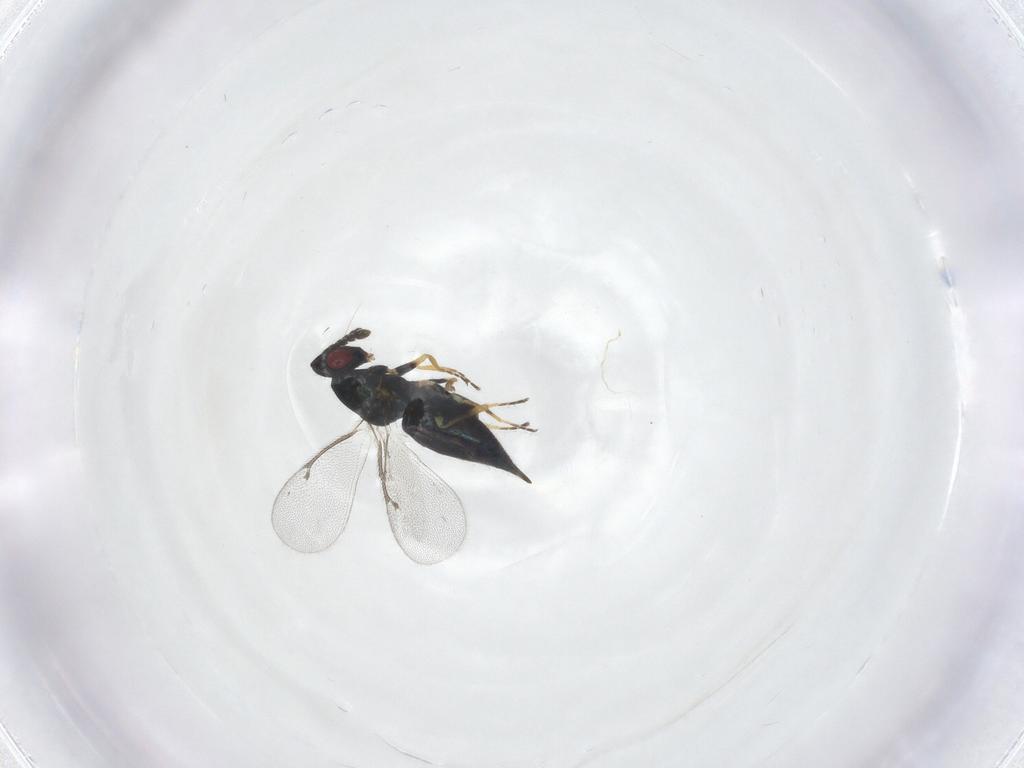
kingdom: Animalia
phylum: Arthropoda
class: Insecta
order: Hymenoptera
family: Eulophidae
